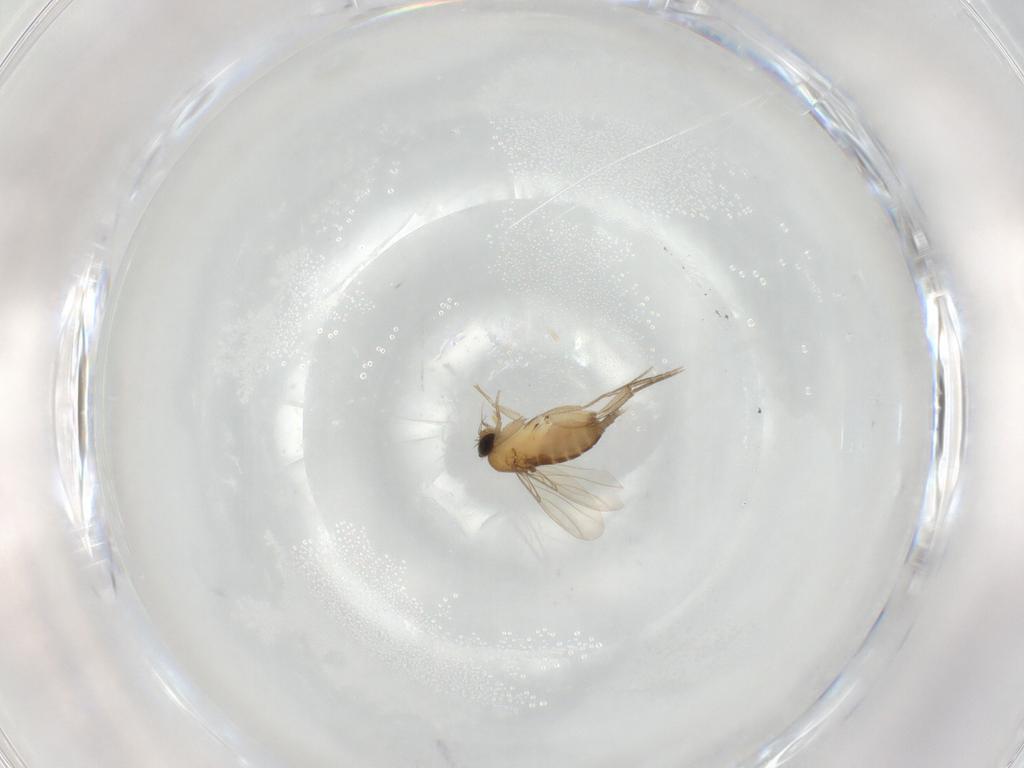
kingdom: Animalia
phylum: Arthropoda
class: Insecta
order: Diptera
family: Phoridae
